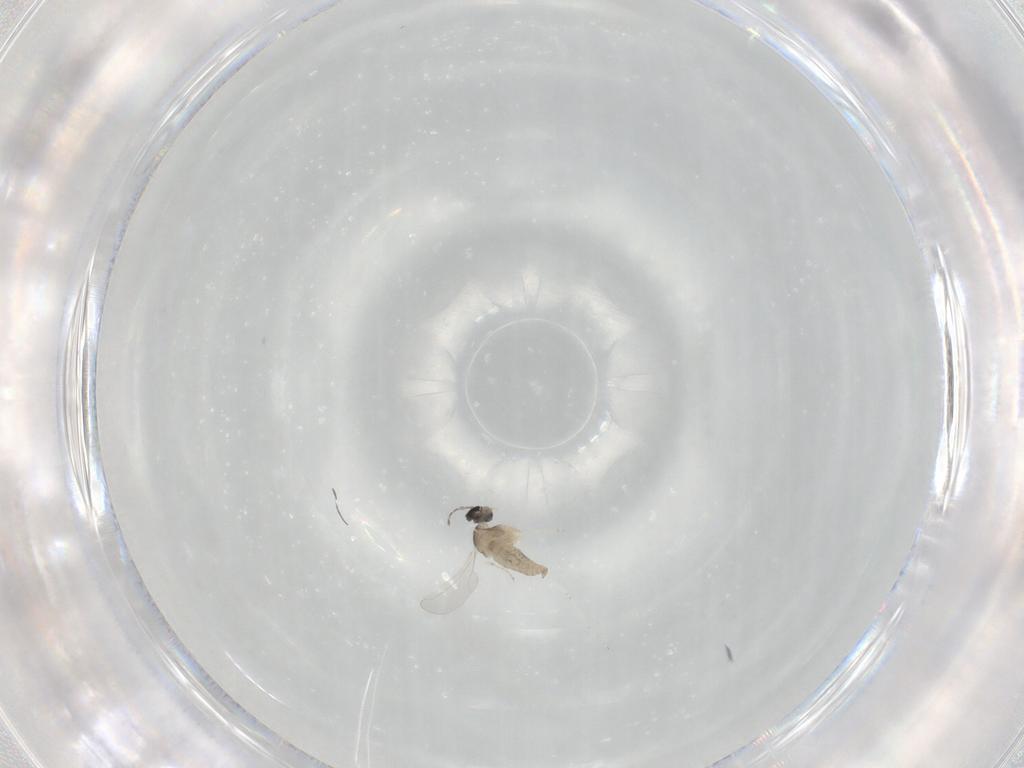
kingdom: Animalia
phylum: Arthropoda
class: Insecta
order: Diptera
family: Cecidomyiidae
